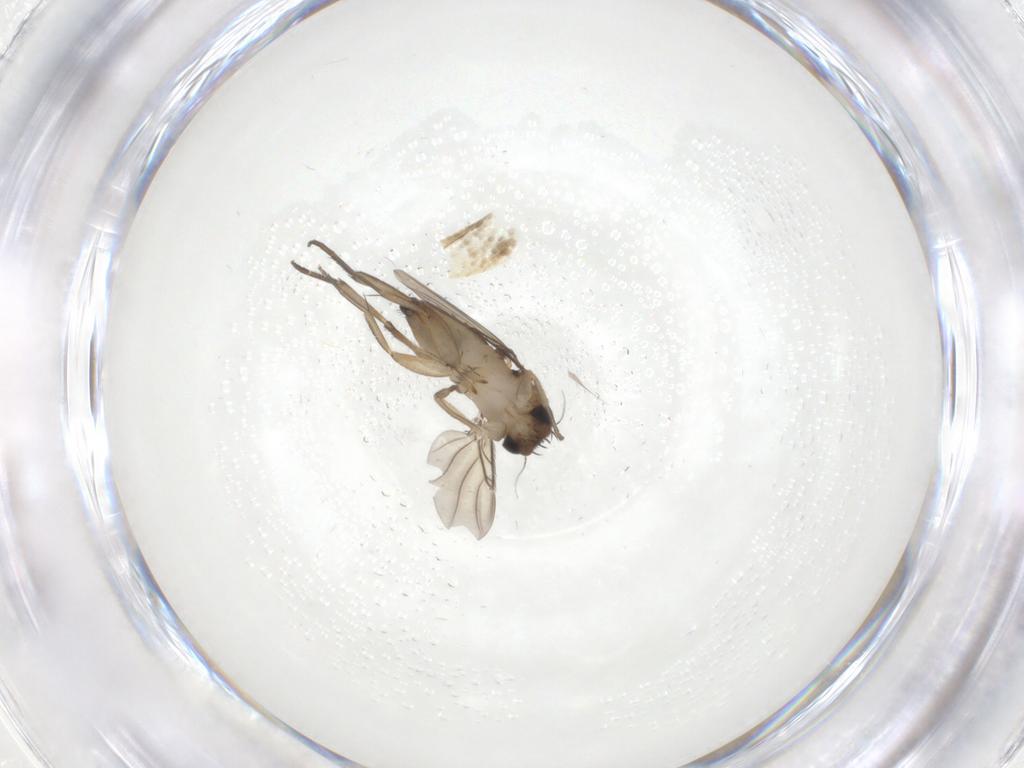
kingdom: Animalia
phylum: Arthropoda
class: Insecta
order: Diptera
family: Phoridae
